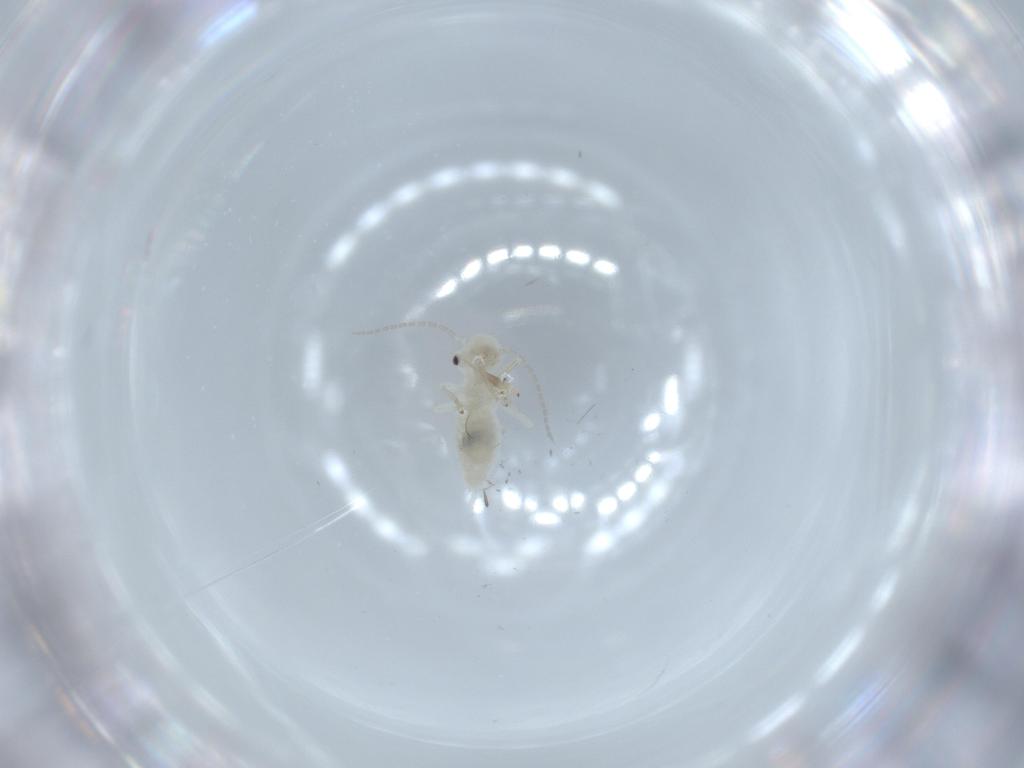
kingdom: Animalia
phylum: Arthropoda
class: Insecta
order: Psocodea
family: Caeciliusidae
